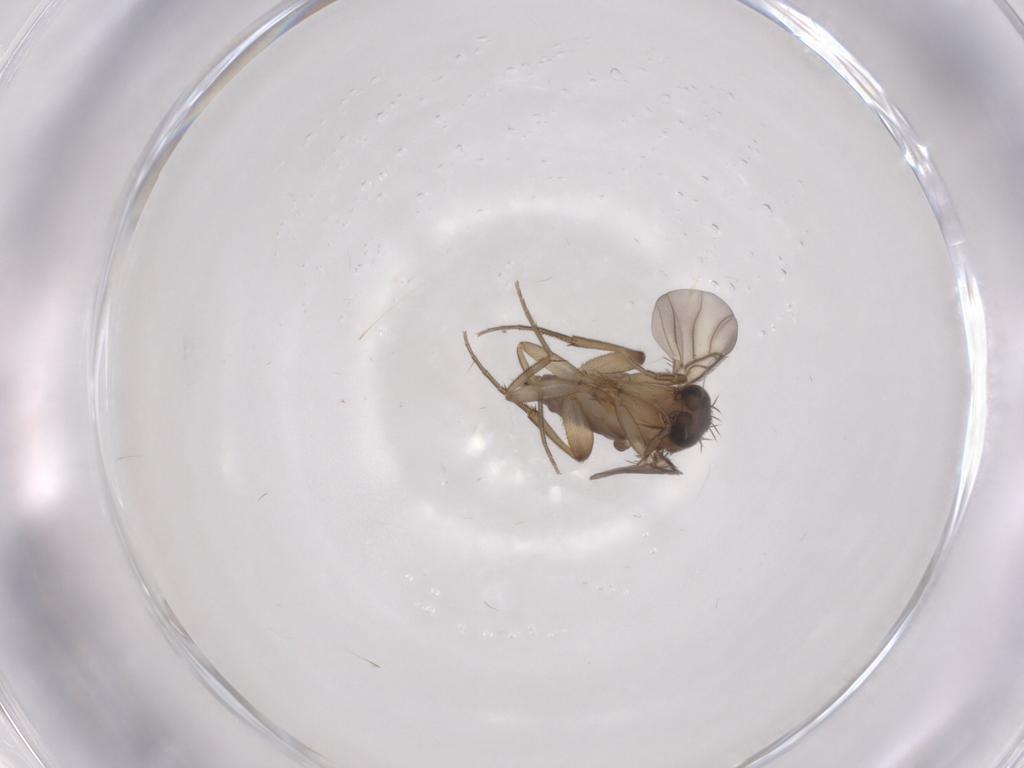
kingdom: Animalia
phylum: Arthropoda
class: Insecta
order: Diptera
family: Phoridae
